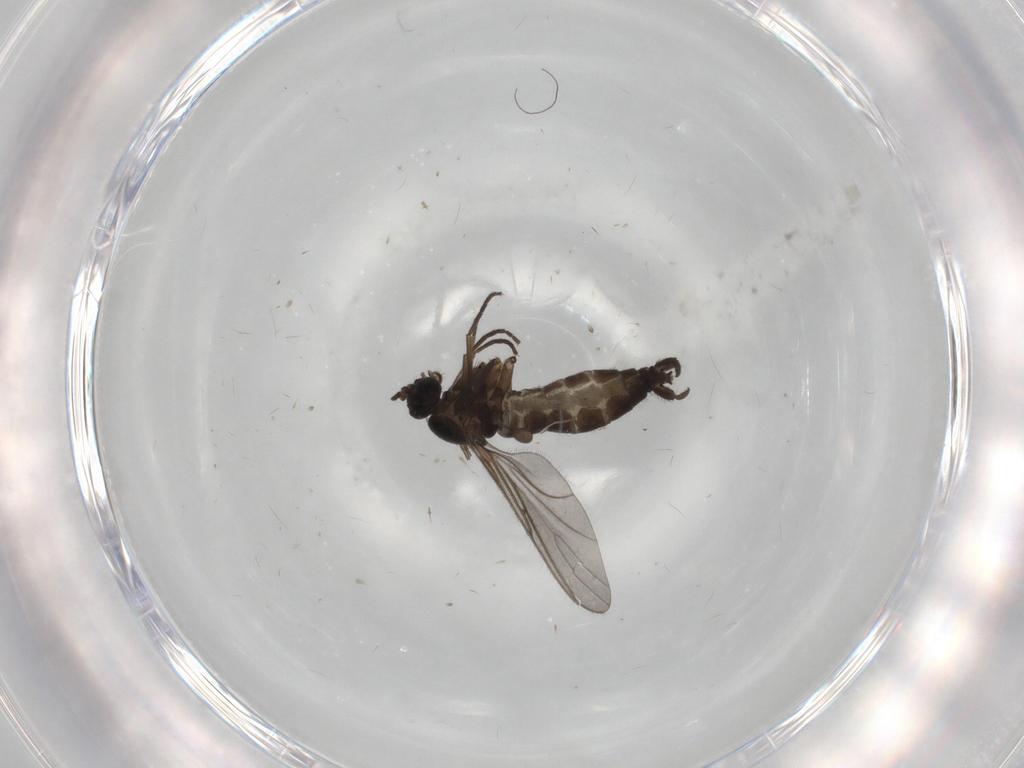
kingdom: Animalia
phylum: Arthropoda
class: Insecta
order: Diptera
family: Sciaridae
